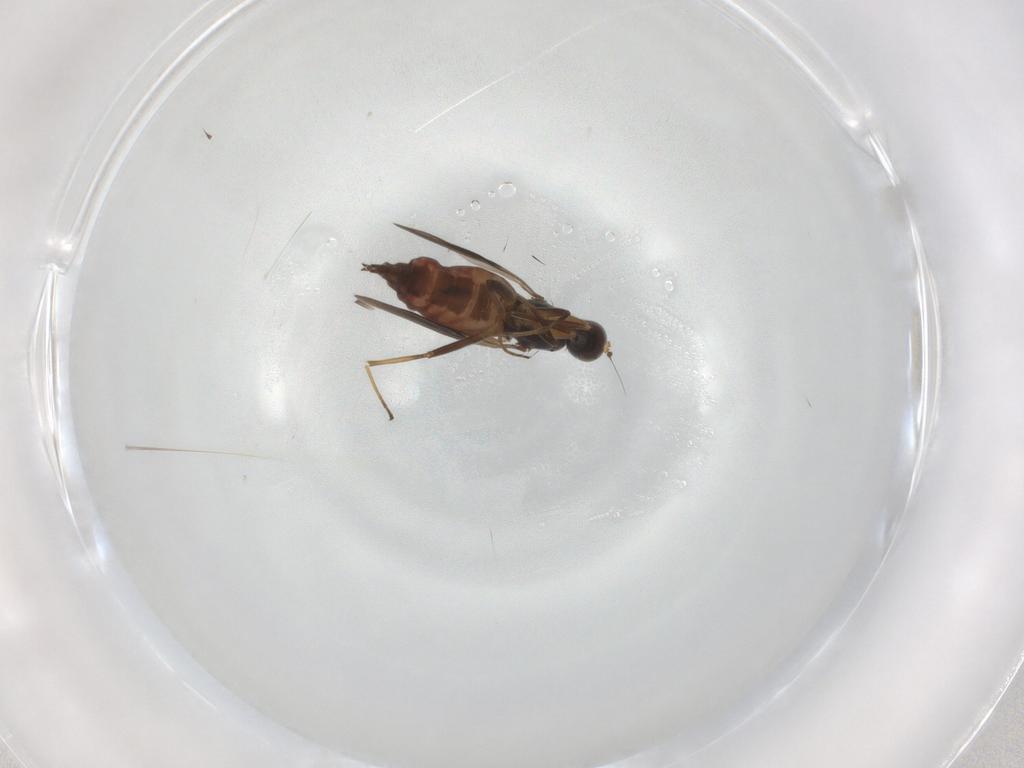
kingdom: Animalia
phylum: Arthropoda
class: Insecta
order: Diptera
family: Hybotidae
